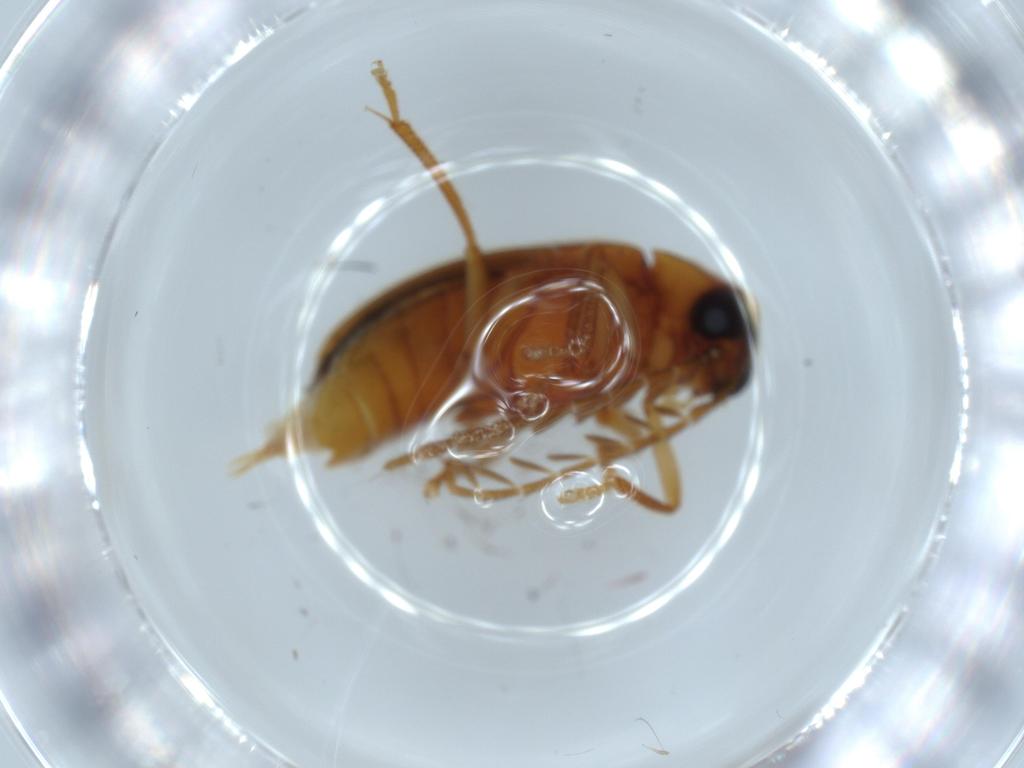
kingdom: Animalia
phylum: Arthropoda
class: Insecta
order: Coleoptera
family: Ptilodactylidae
